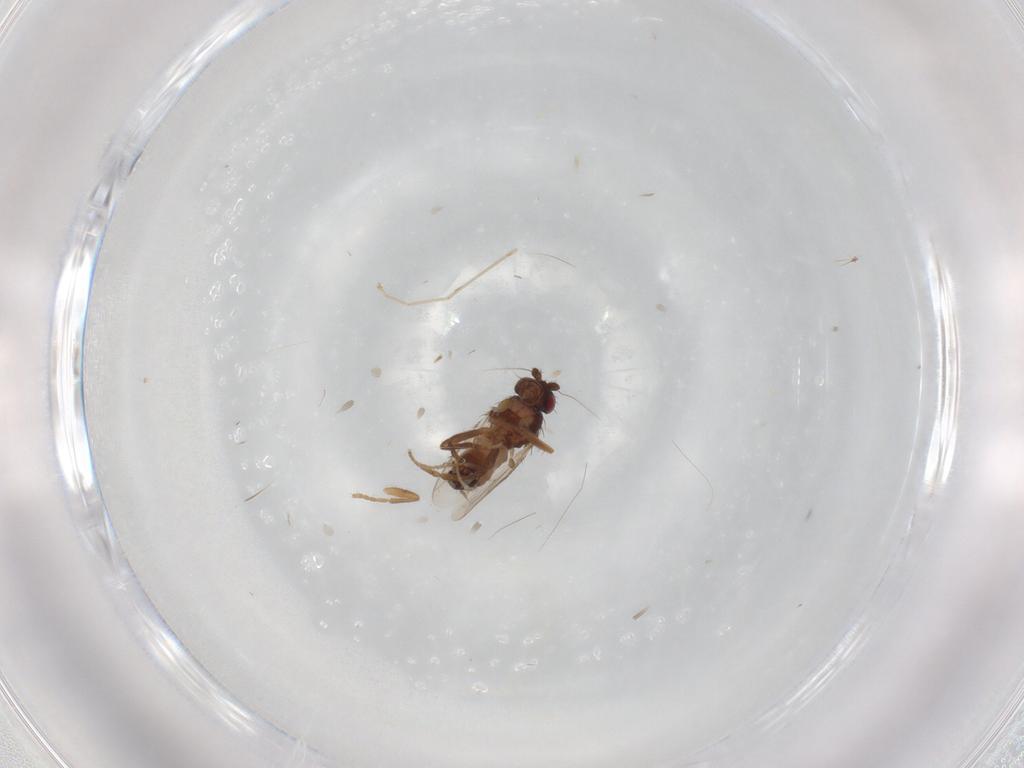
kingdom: Animalia
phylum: Arthropoda
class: Insecta
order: Diptera
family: Sphaeroceridae
